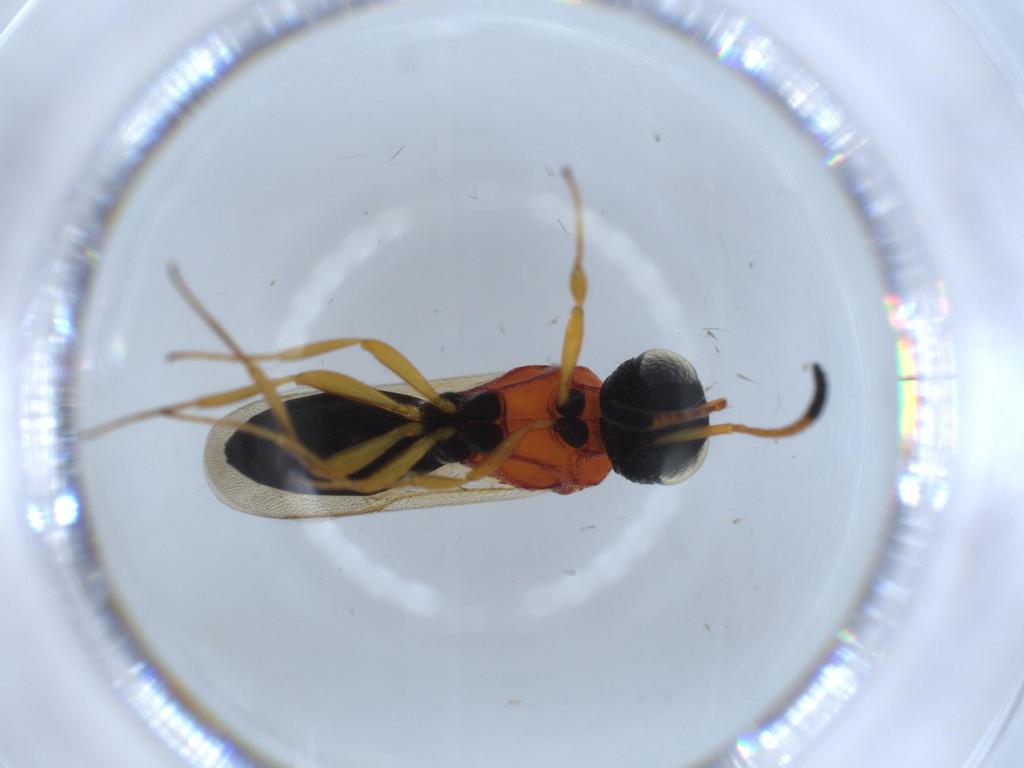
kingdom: Animalia
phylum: Arthropoda
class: Insecta
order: Hymenoptera
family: Scelionidae
